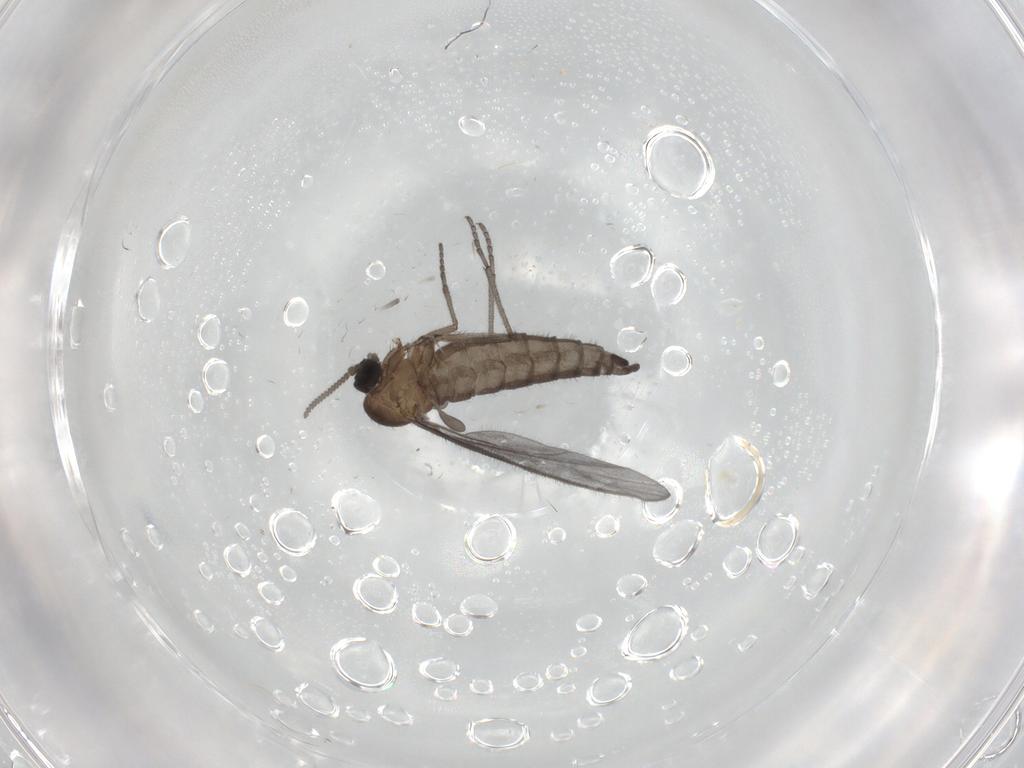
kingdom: Animalia
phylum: Arthropoda
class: Insecta
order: Diptera
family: Sciaridae
